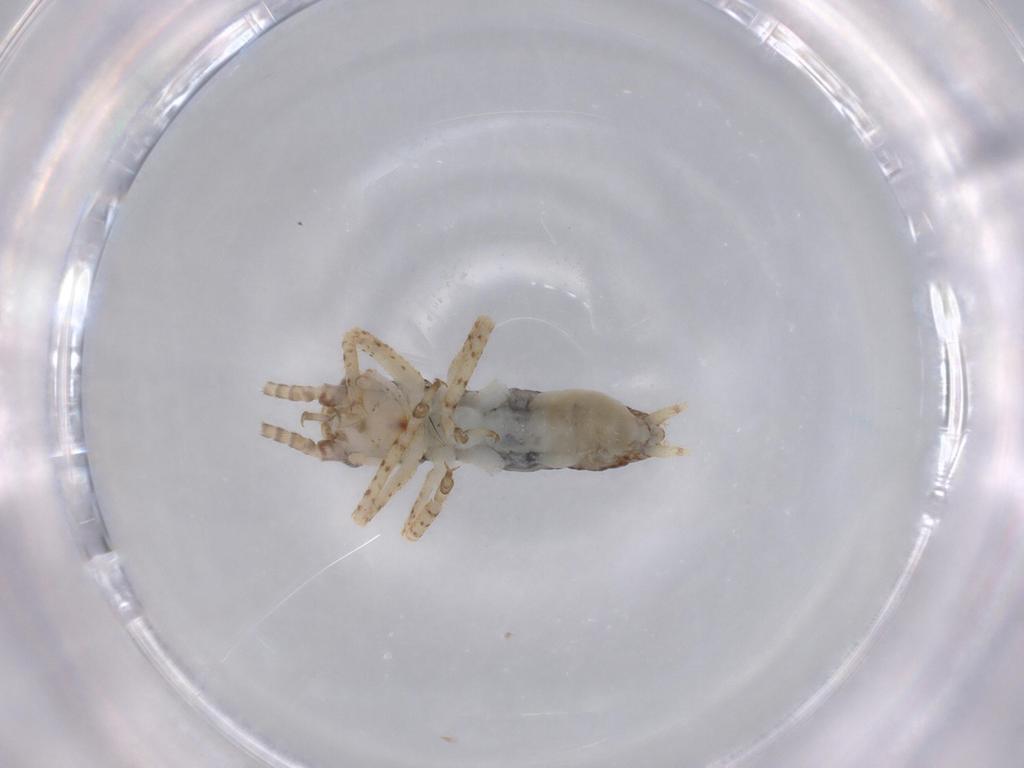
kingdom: Animalia
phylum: Arthropoda
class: Insecta
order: Orthoptera
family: Gryllidae
